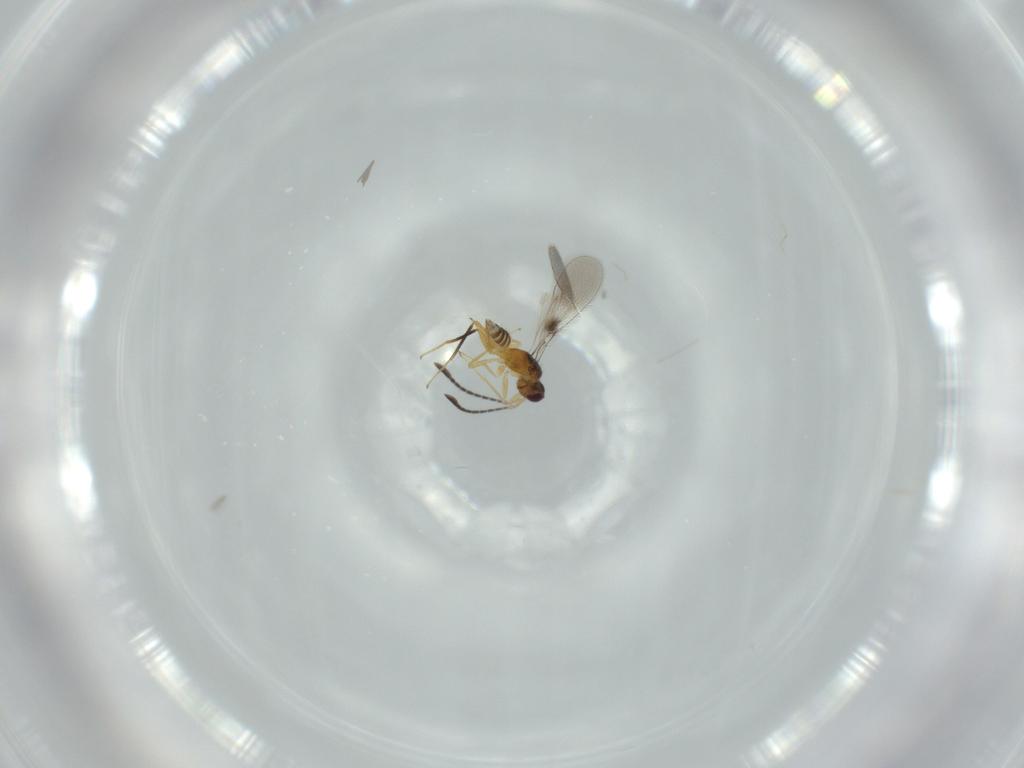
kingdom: Animalia
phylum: Arthropoda
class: Insecta
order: Hymenoptera
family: Mymaridae
